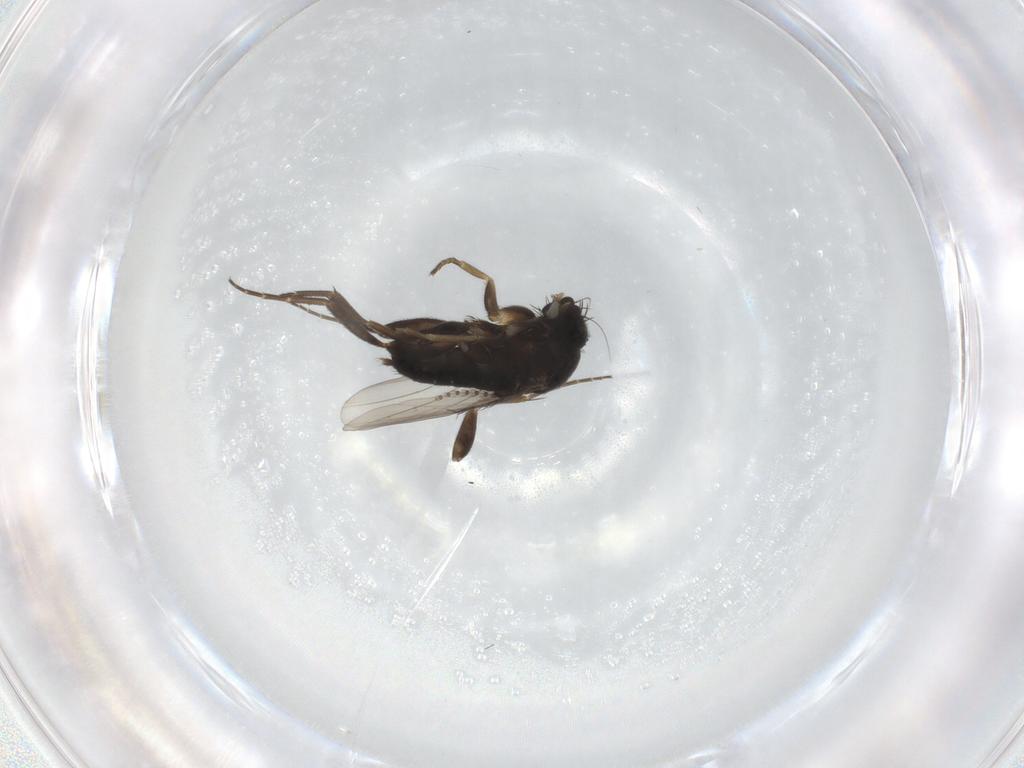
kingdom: Animalia
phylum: Arthropoda
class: Insecta
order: Diptera
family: Phoridae
